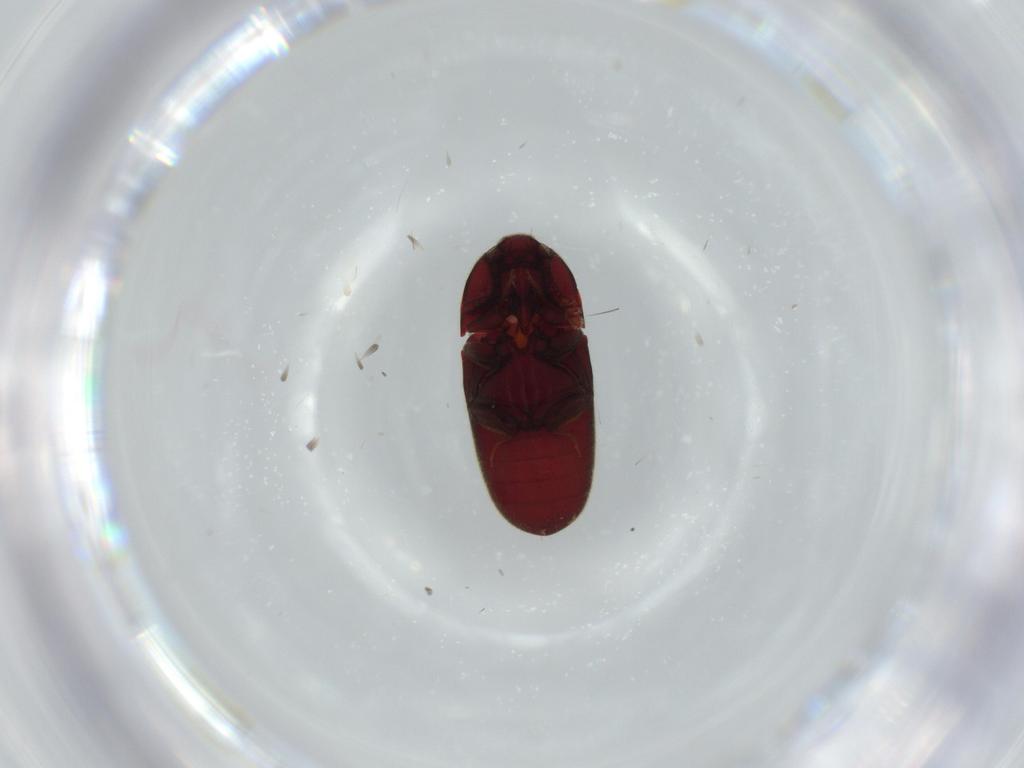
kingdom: Animalia
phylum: Arthropoda
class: Insecta
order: Coleoptera
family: Throscidae
